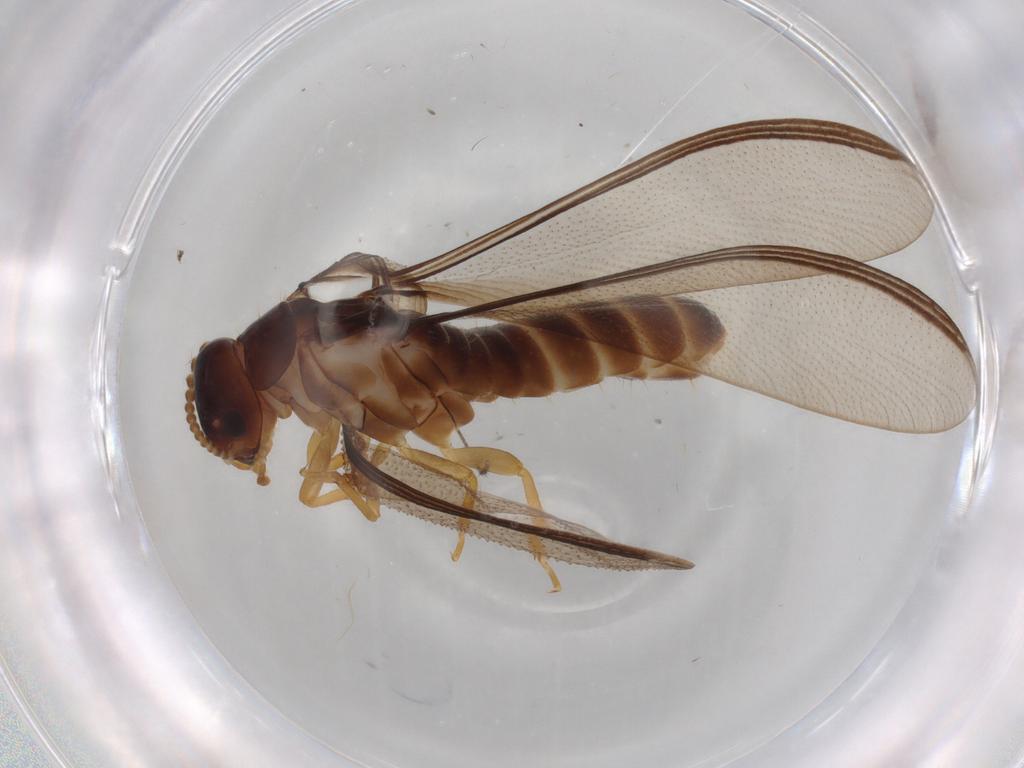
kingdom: Animalia
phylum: Arthropoda
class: Insecta
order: Blattodea
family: Kalotermitidae
